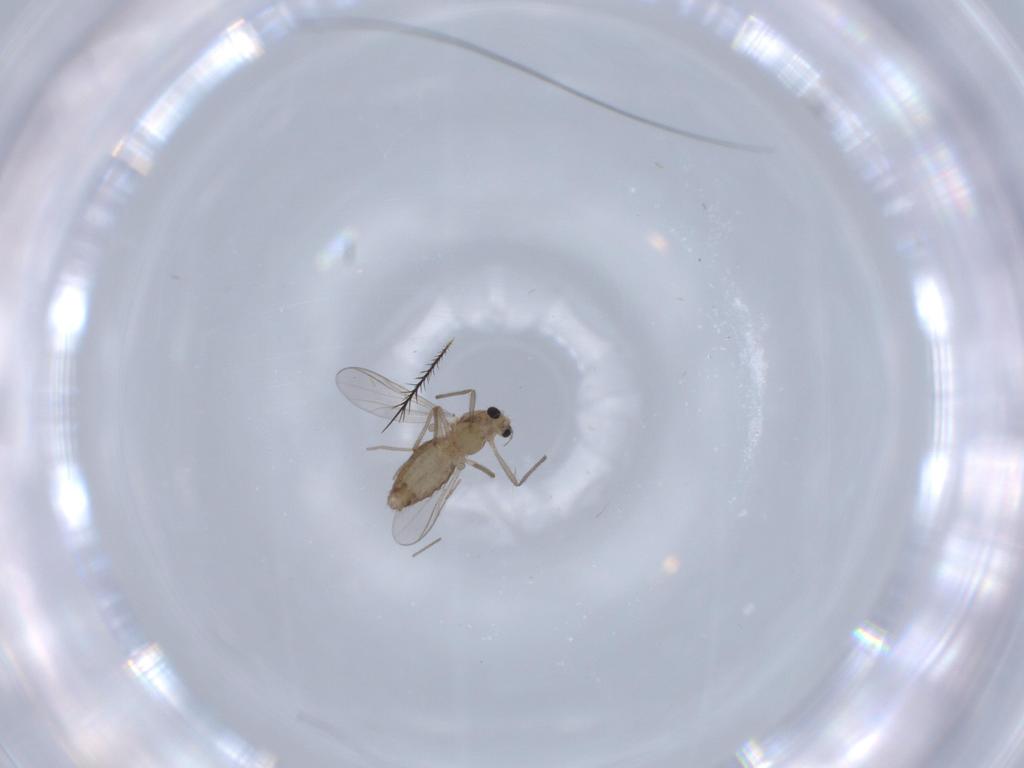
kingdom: Animalia
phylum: Arthropoda
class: Insecta
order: Diptera
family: Chironomidae
